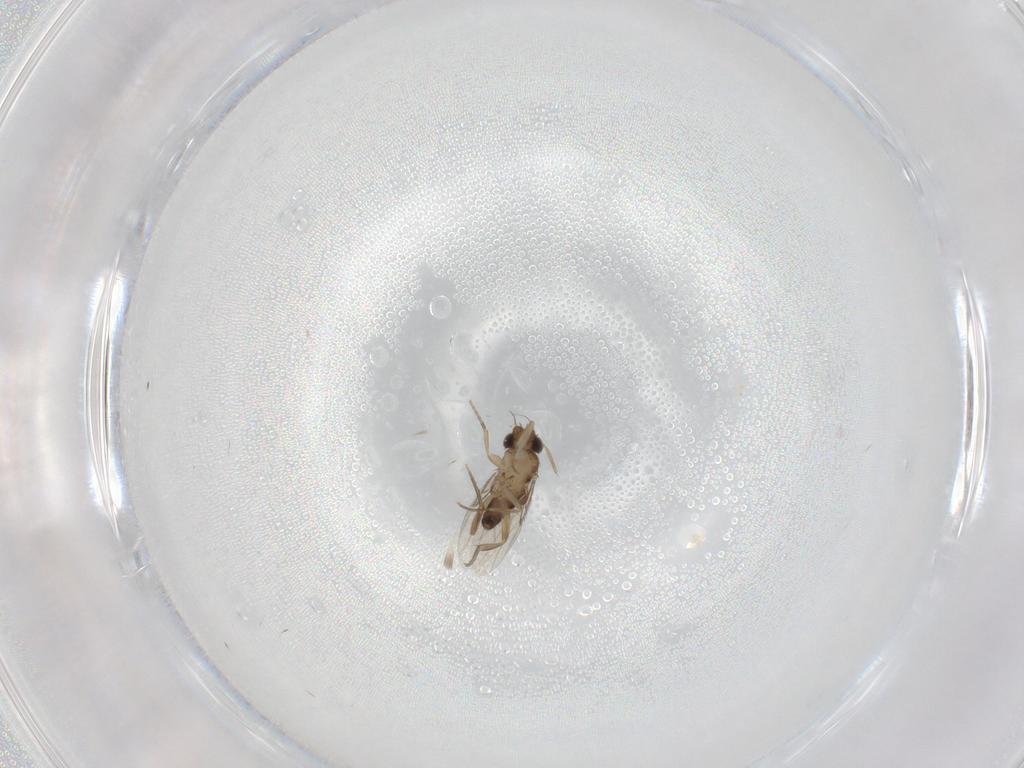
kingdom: Animalia
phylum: Arthropoda
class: Insecta
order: Diptera
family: Phoridae
